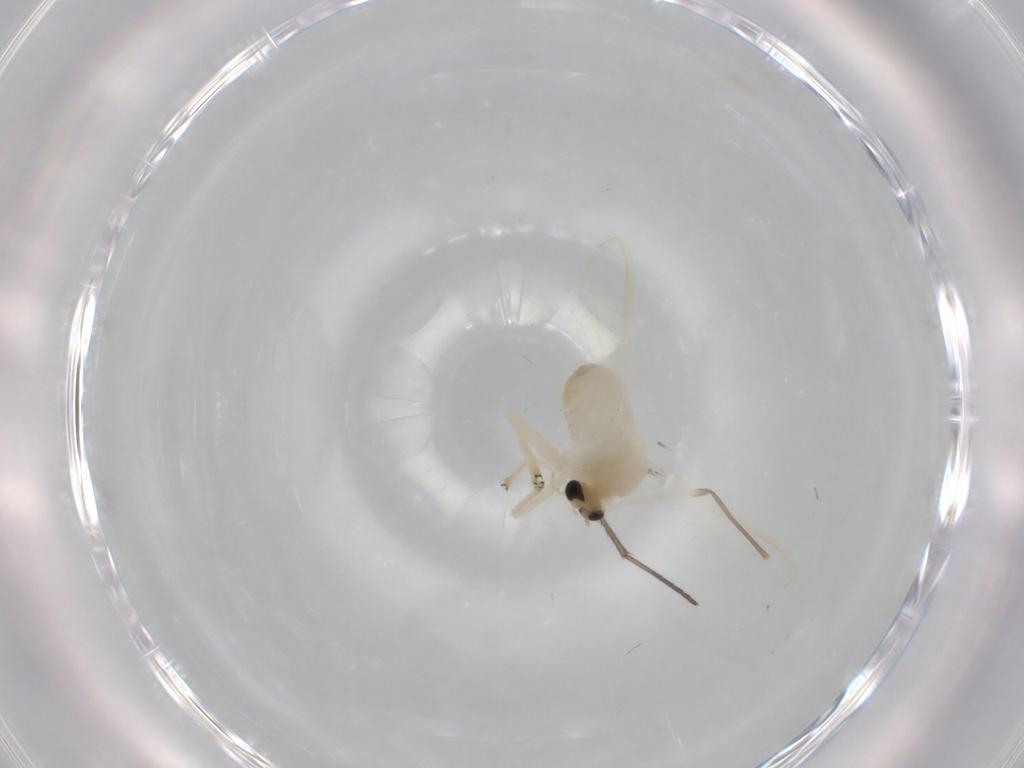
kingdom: Animalia
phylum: Arthropoda
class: Insecta
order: Diptera
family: Chironomidae
